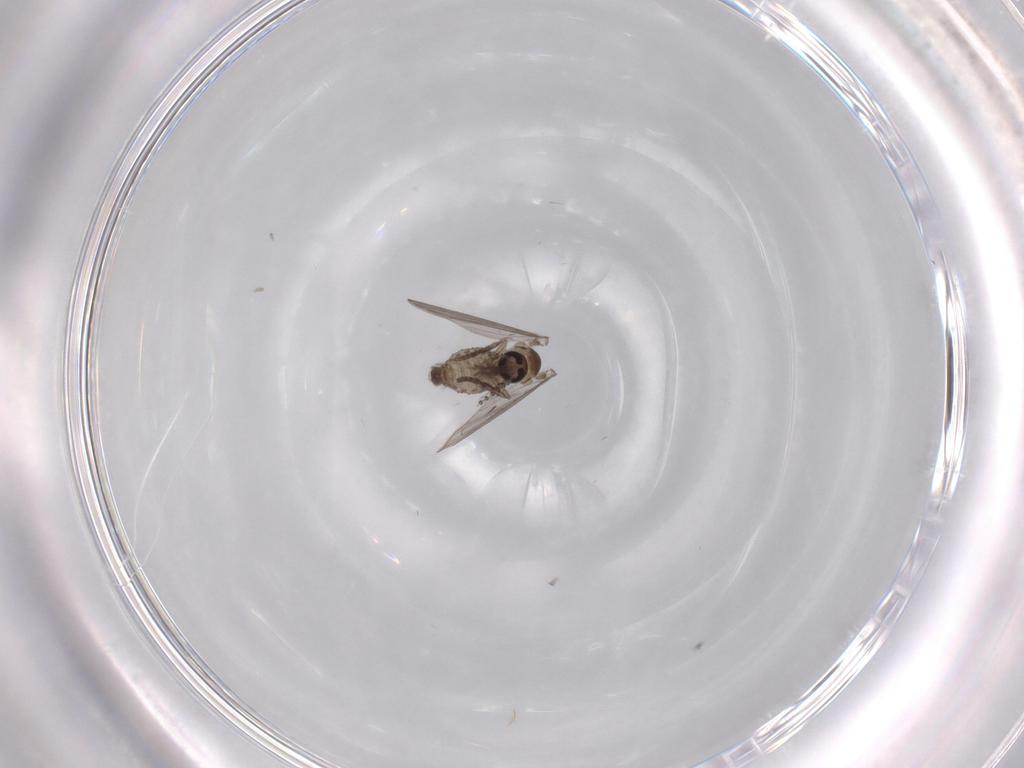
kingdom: Animalia
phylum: Arthropoda
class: Insecta
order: Diptera
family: Psychodidae
